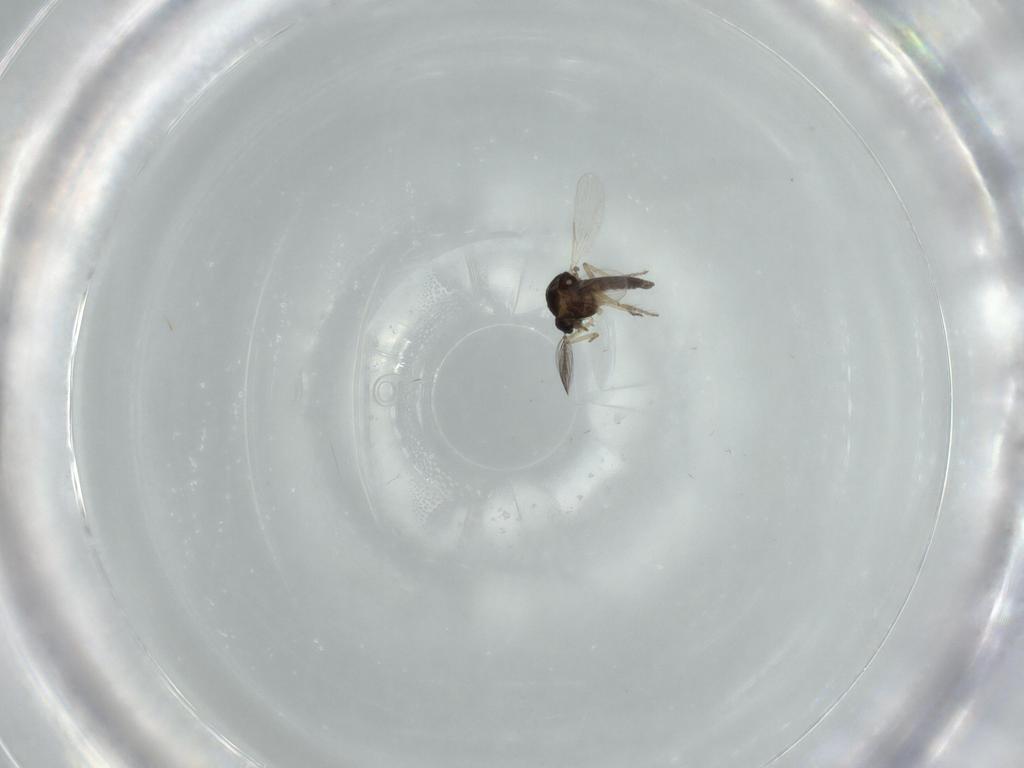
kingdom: Animalia
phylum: Arthropoda
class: Insecta
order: Diptera
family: Ceratopogonidae
